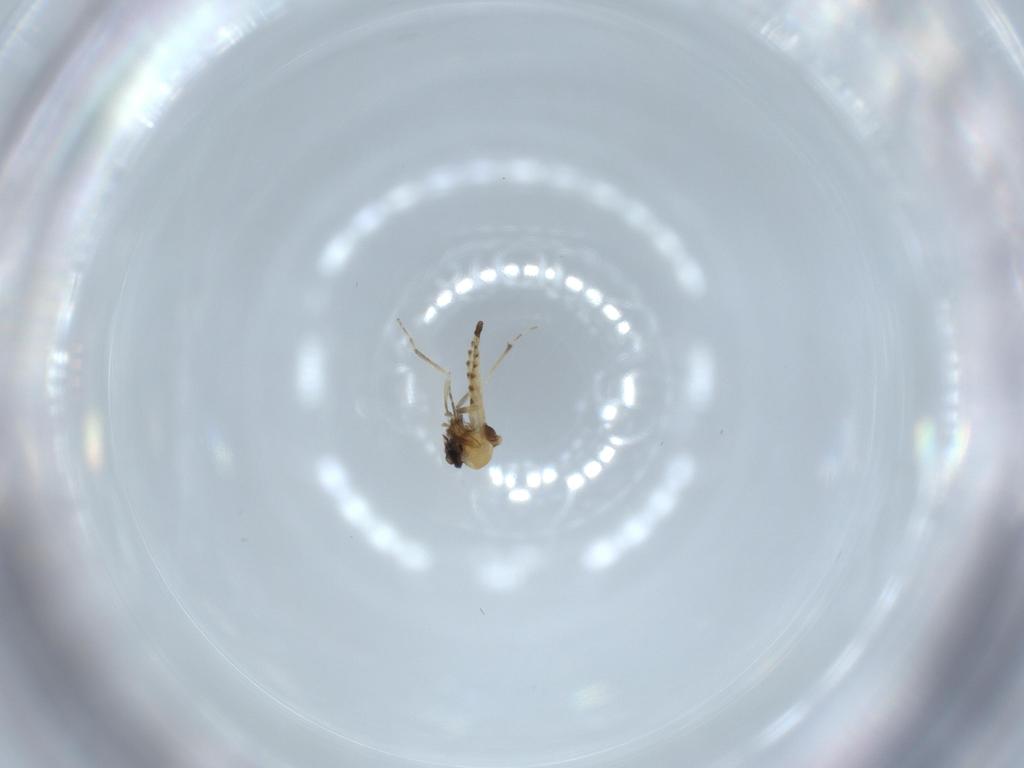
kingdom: Animalia
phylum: Arthropoda
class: Insecta
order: Diptera
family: Ceratopogonidae
